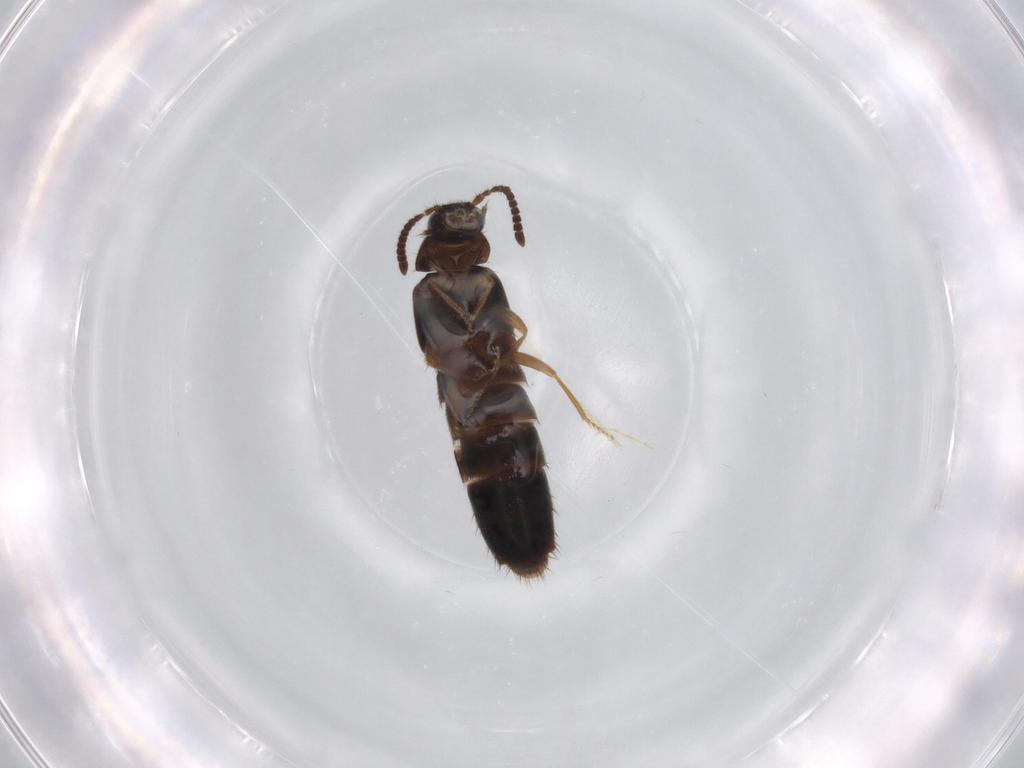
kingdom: Animalia
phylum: Arthropoda
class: Insecta
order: Coleoptera
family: Staphylinidae
